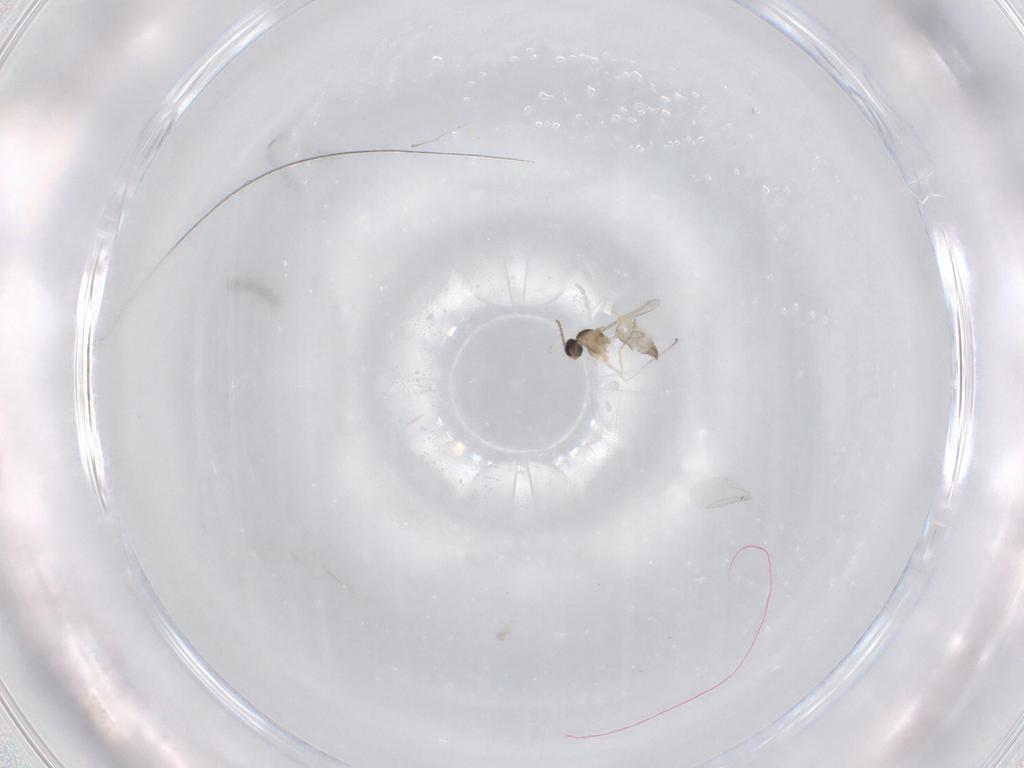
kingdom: Animalia
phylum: Arthropoda
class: Insecta
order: Diptera
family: Cecidomyiidae
